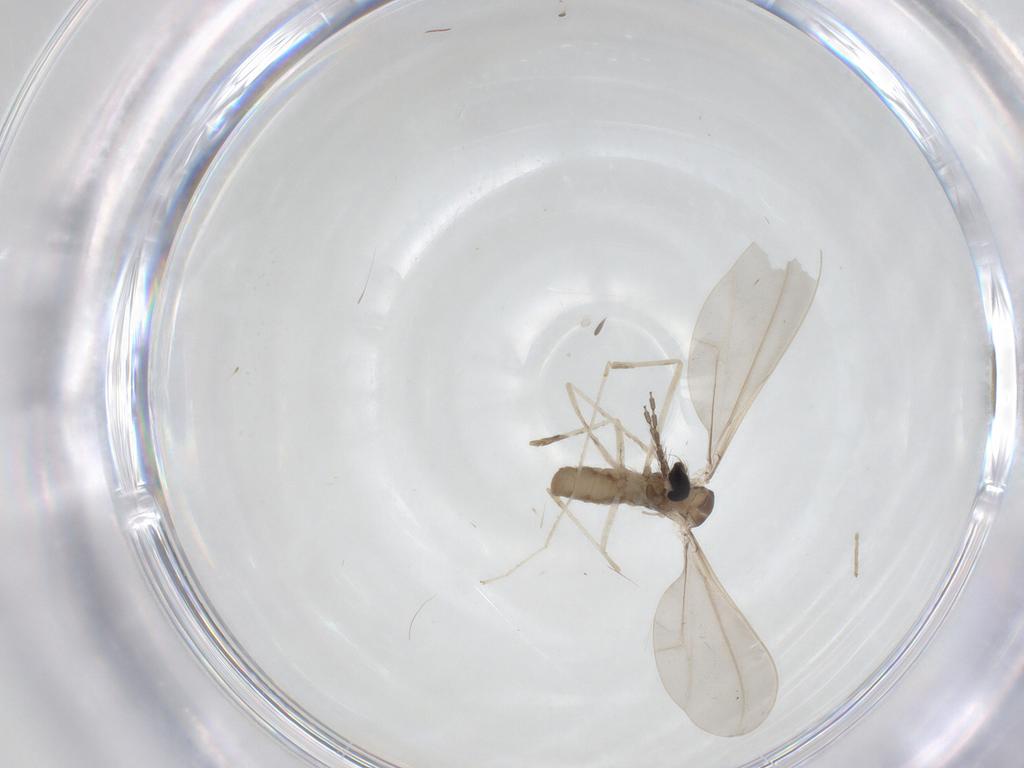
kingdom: Animalia
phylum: Arthropoda
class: Insecta
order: Diptera
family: Cecidomyiidae
